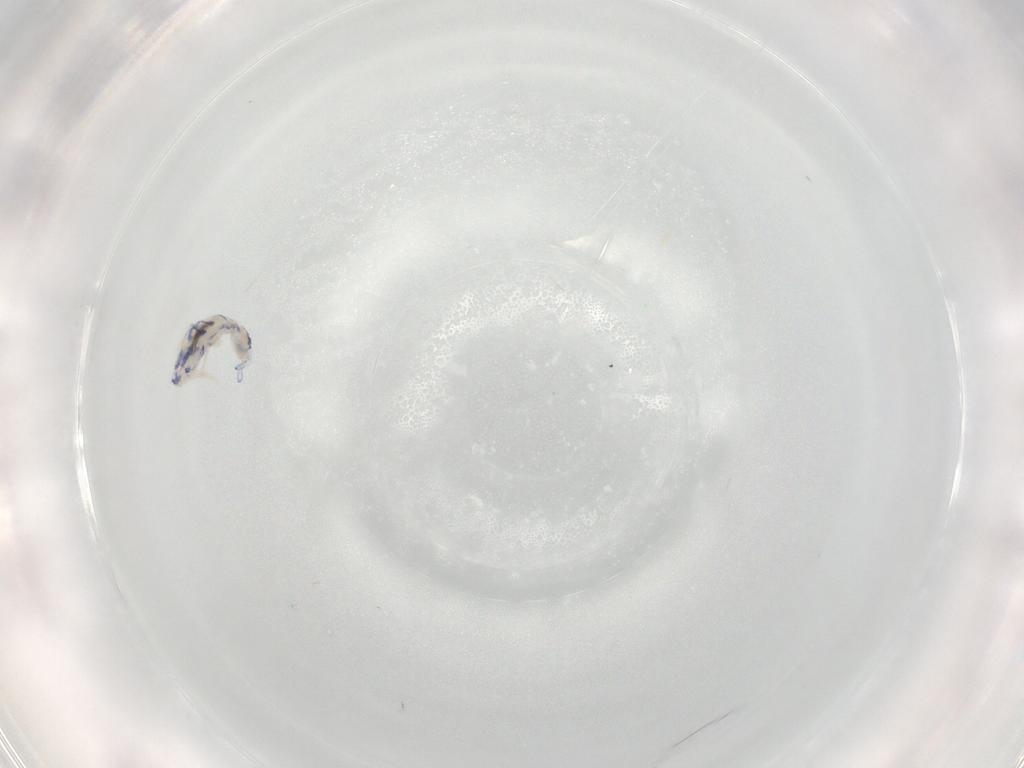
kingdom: Animalia
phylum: Arthropoda
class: Collembola
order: Entomobryomorpha
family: Entomobryidae
